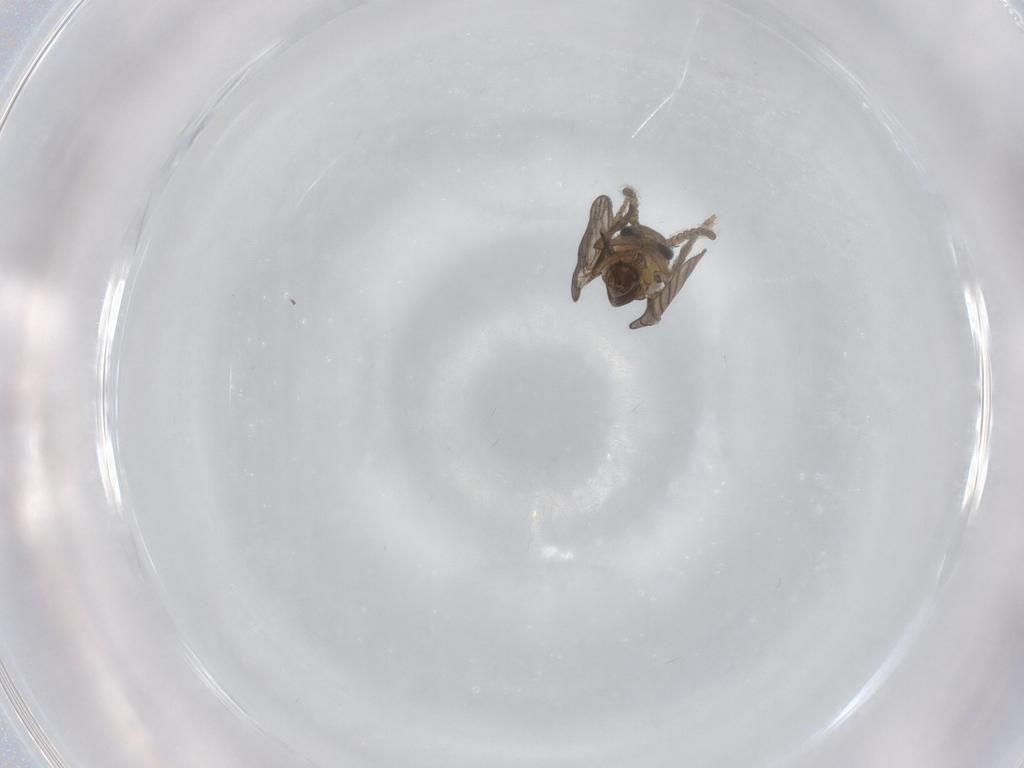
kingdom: Animalia
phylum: Arthropoda
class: Insecta
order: Diptera
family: Psychodidae
